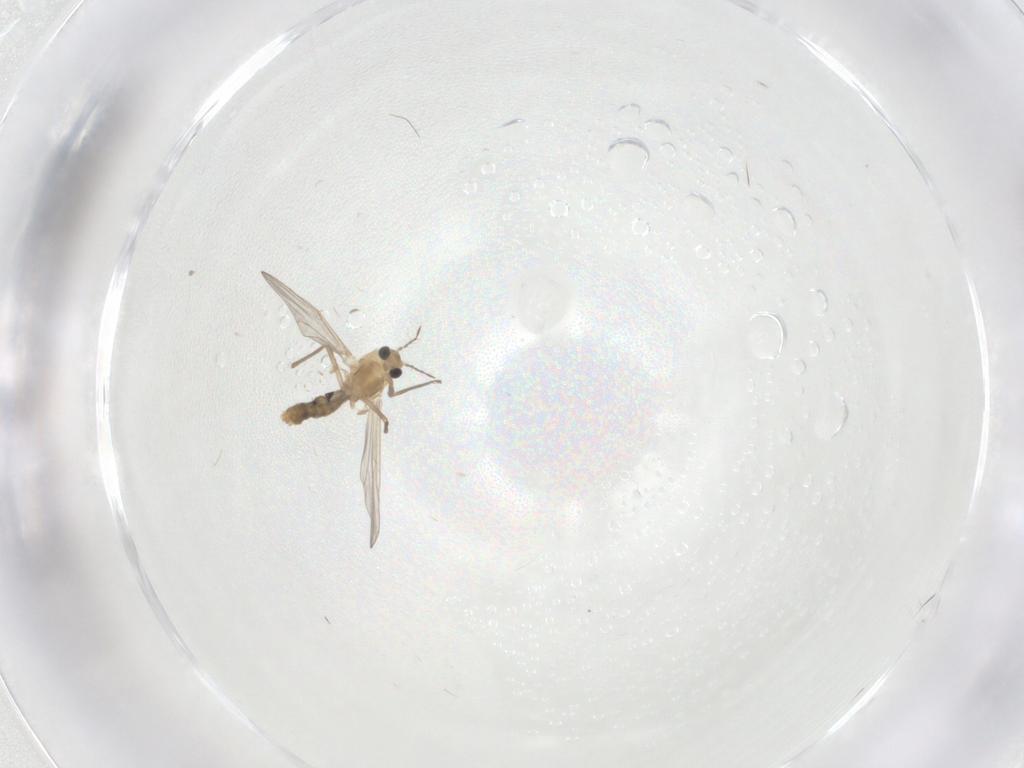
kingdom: Animalia
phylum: Arthropoda
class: Insecta
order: Diptera
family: Chironomidae
